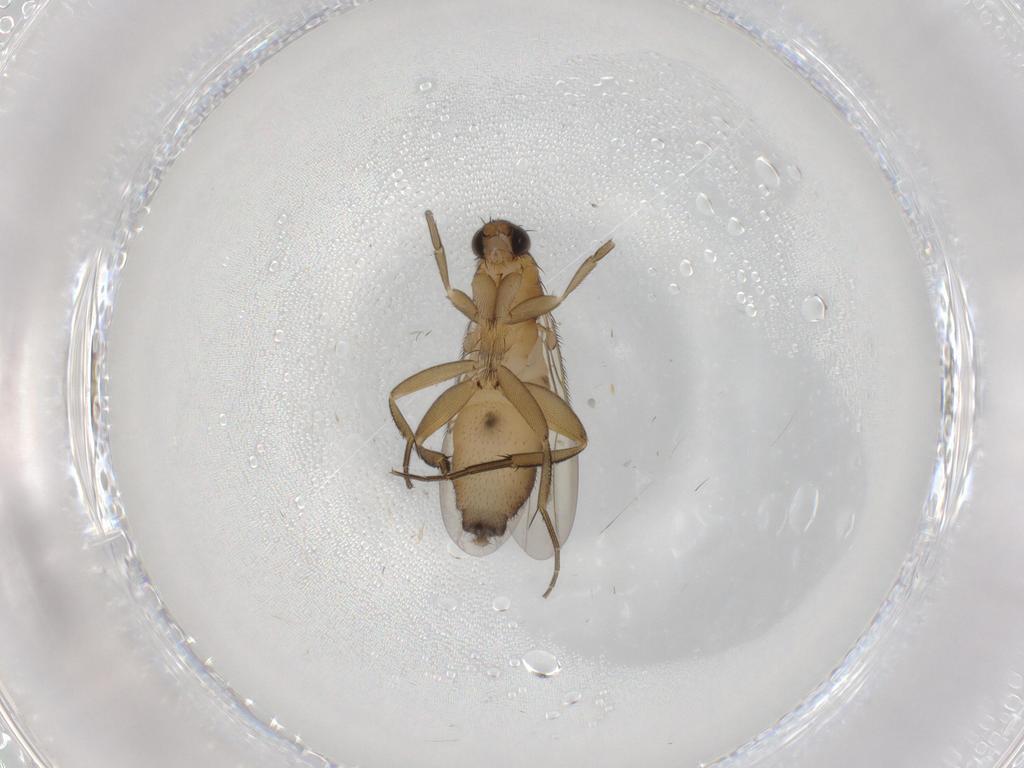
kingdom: Animalia
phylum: Arthropoda
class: Insecta
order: Diptera
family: Phoridae
